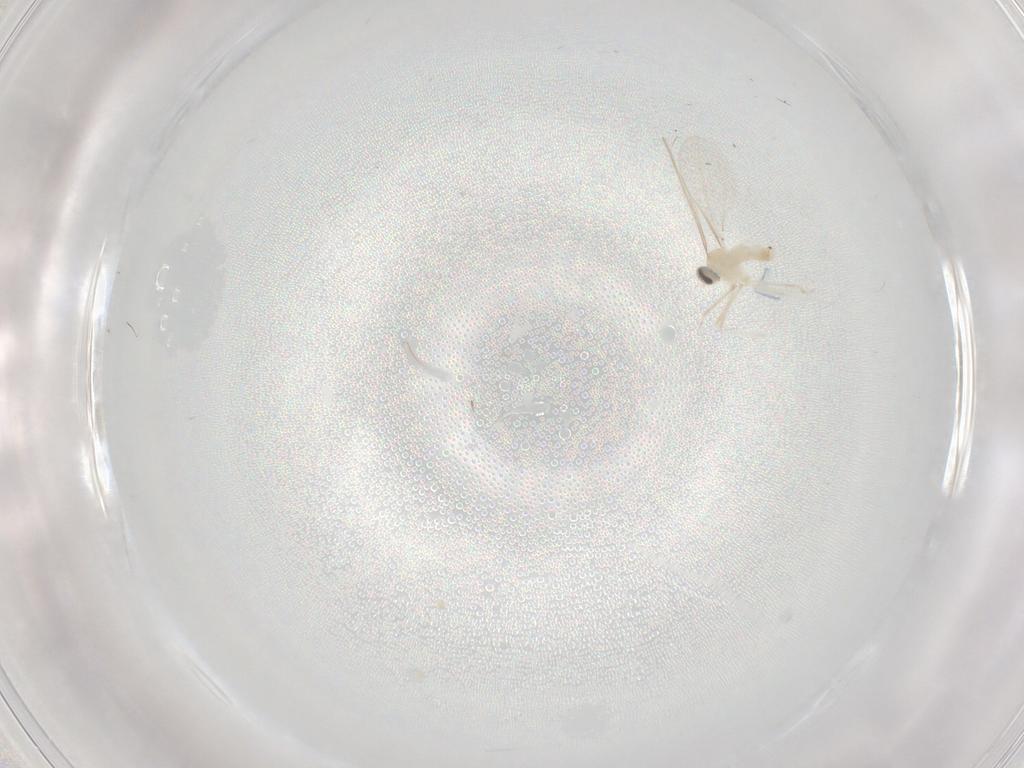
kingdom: Animalia
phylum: Arthropoda
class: Insecta
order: Diptera
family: Cecidomyiidae
